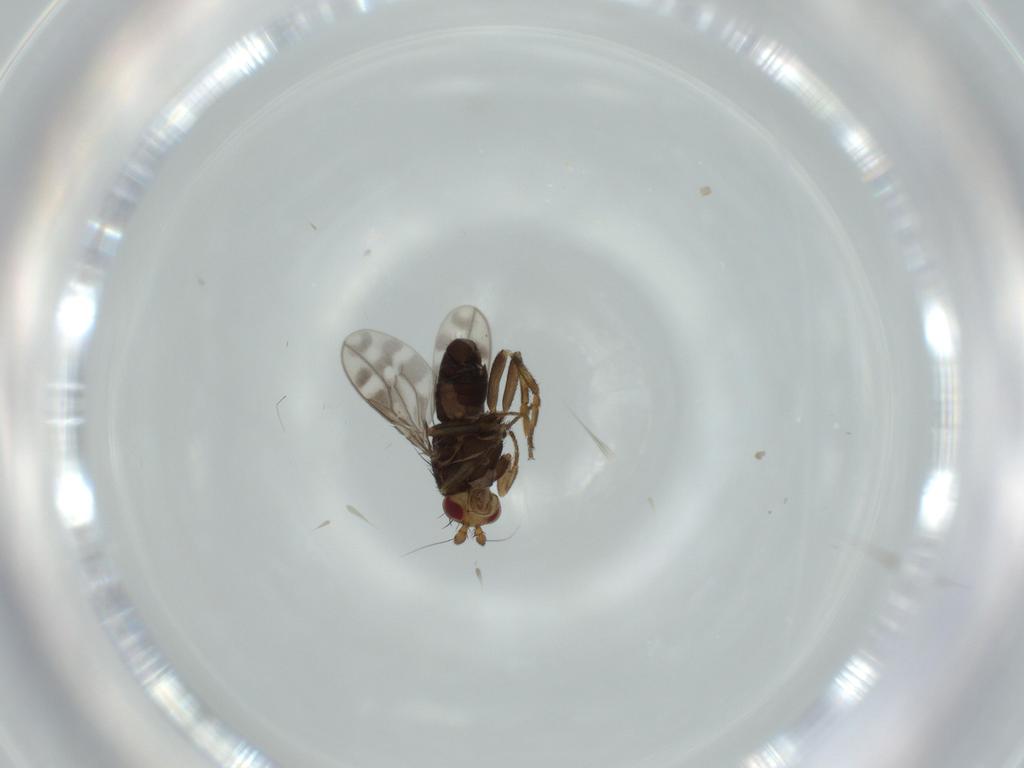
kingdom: Animalia
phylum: Arthropoda
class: Insecta
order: Diptera
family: Sphaeroceridae
